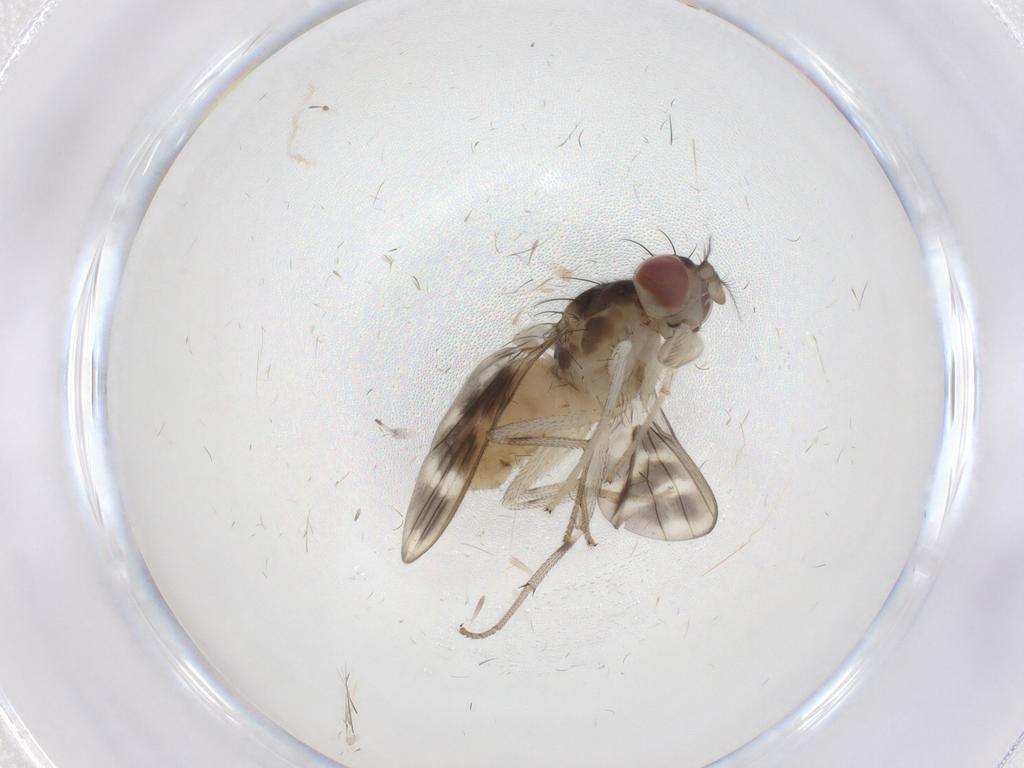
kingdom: Animalia
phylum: Arthropoda
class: Insecta
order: Diptera
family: Lauxaniidae
